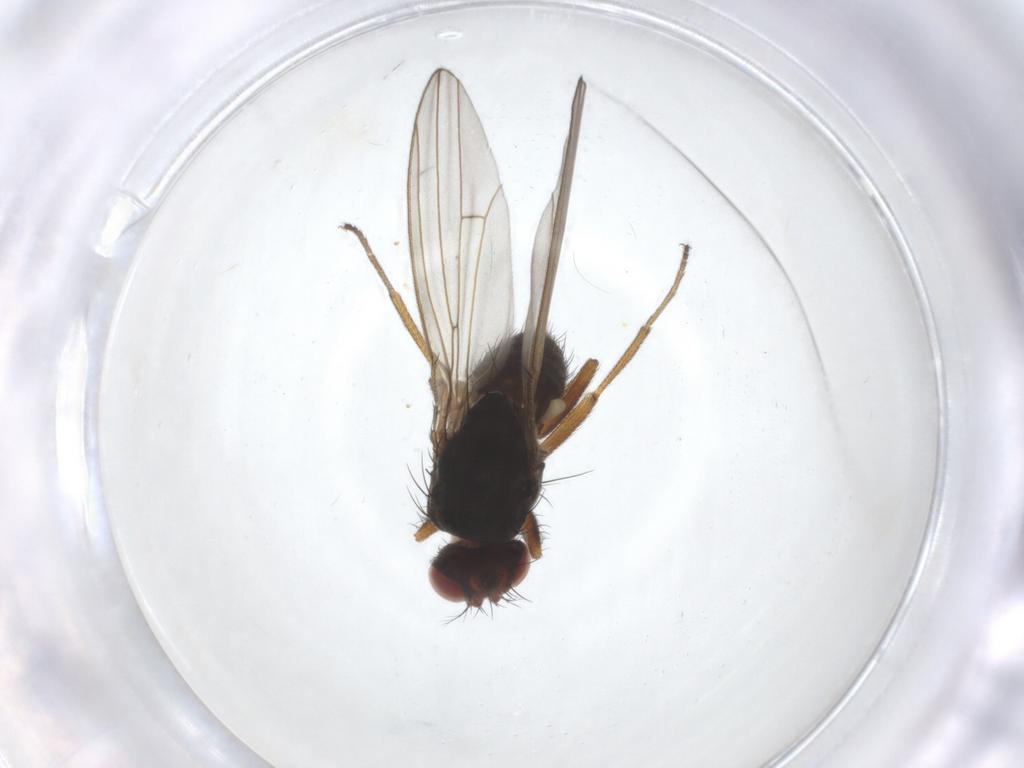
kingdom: Animalia
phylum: Arthropoda
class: Insecta
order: Diptera
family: Drosophilidae
